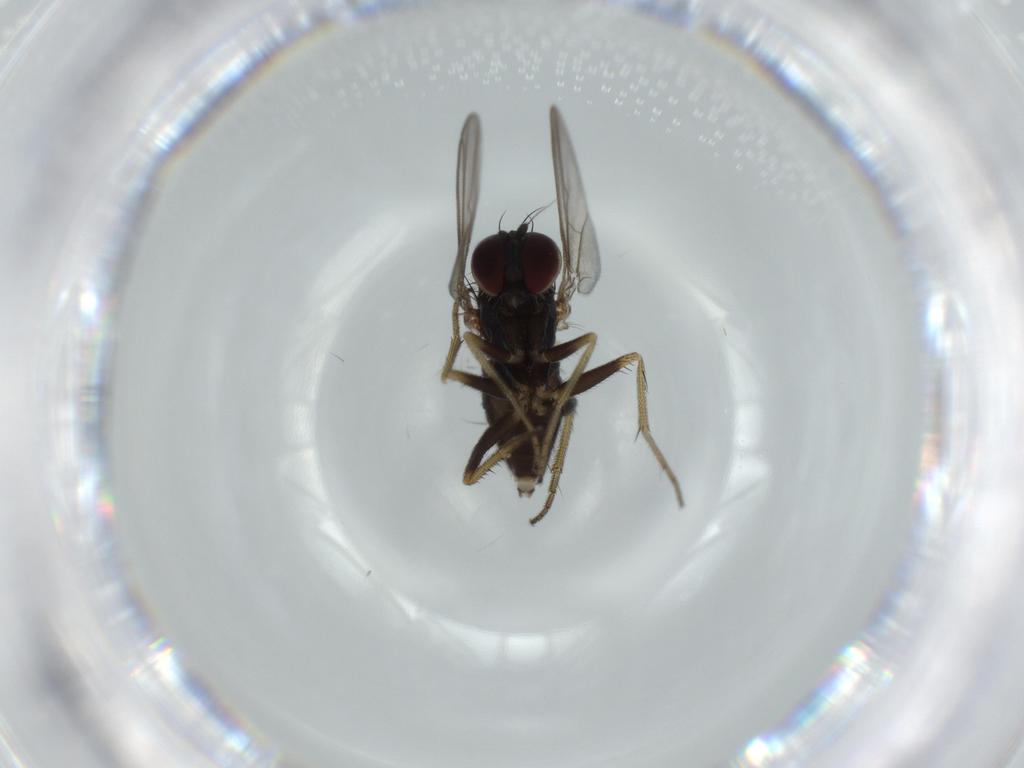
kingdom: Animalia
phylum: Arthropoda
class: Insecta
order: Diptera
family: Dolichopodidae
